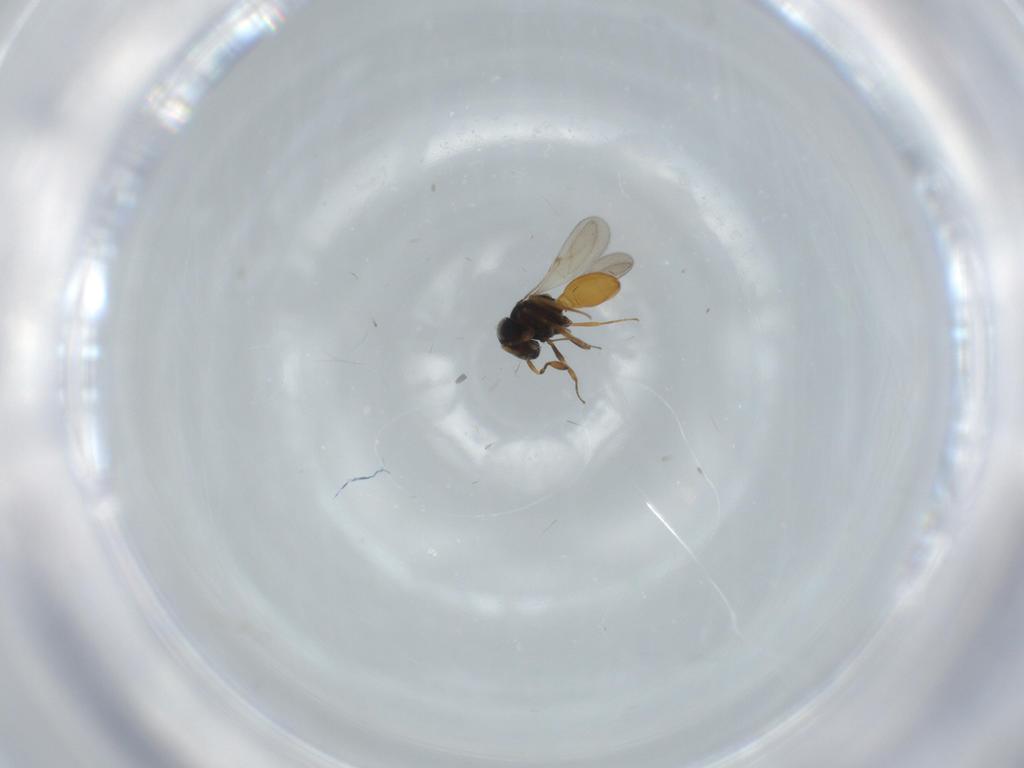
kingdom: Animalia
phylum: Arthropoda
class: Insecta
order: Hymenoptera
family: Scelionidae
